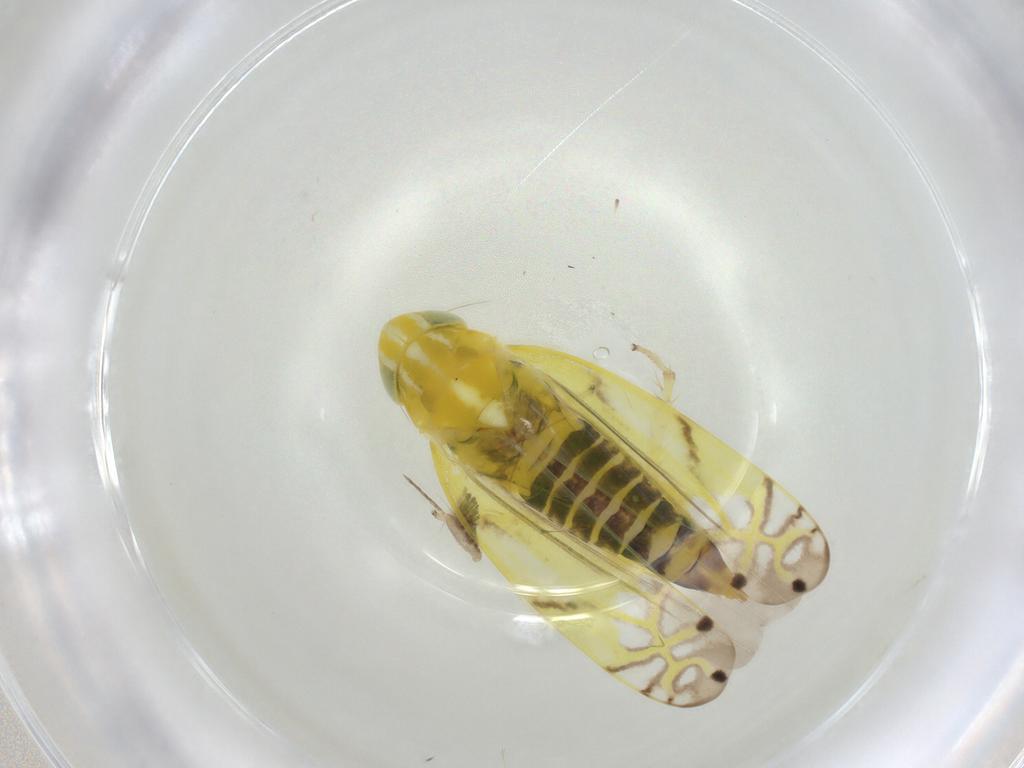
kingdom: Animalia
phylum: Arthropoda
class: Insecta
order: Hemiptera
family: Cicadellidae
